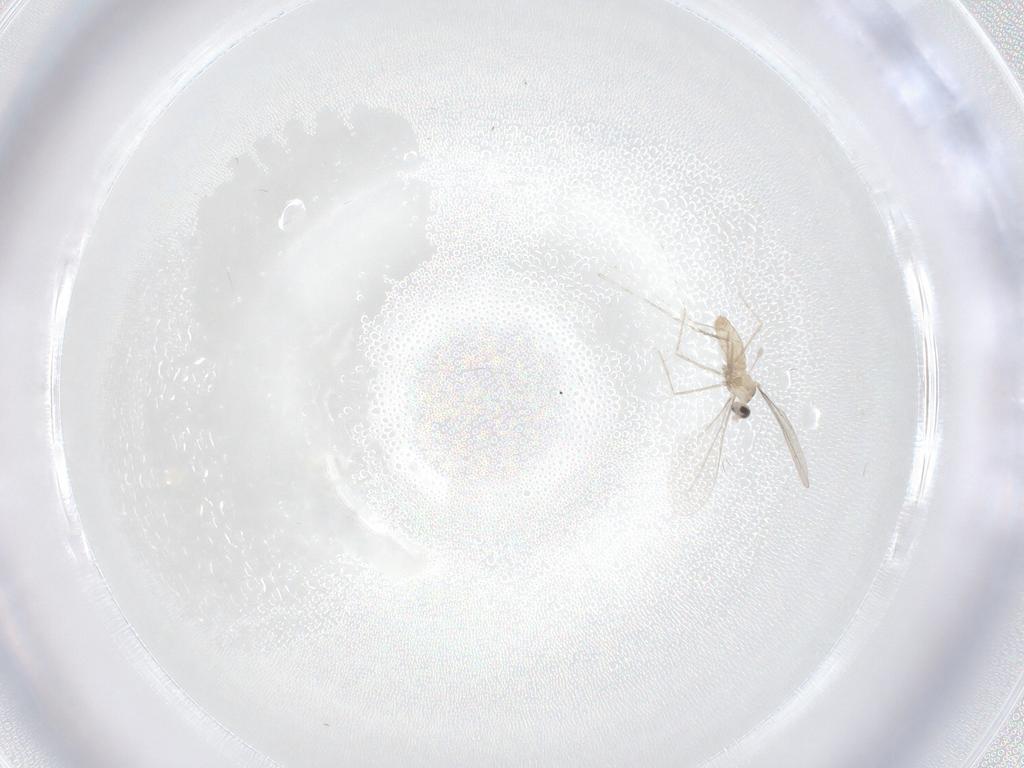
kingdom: Animalia
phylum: Arthropoda
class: Insecta
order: Diptera
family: Cecidomyiidae
